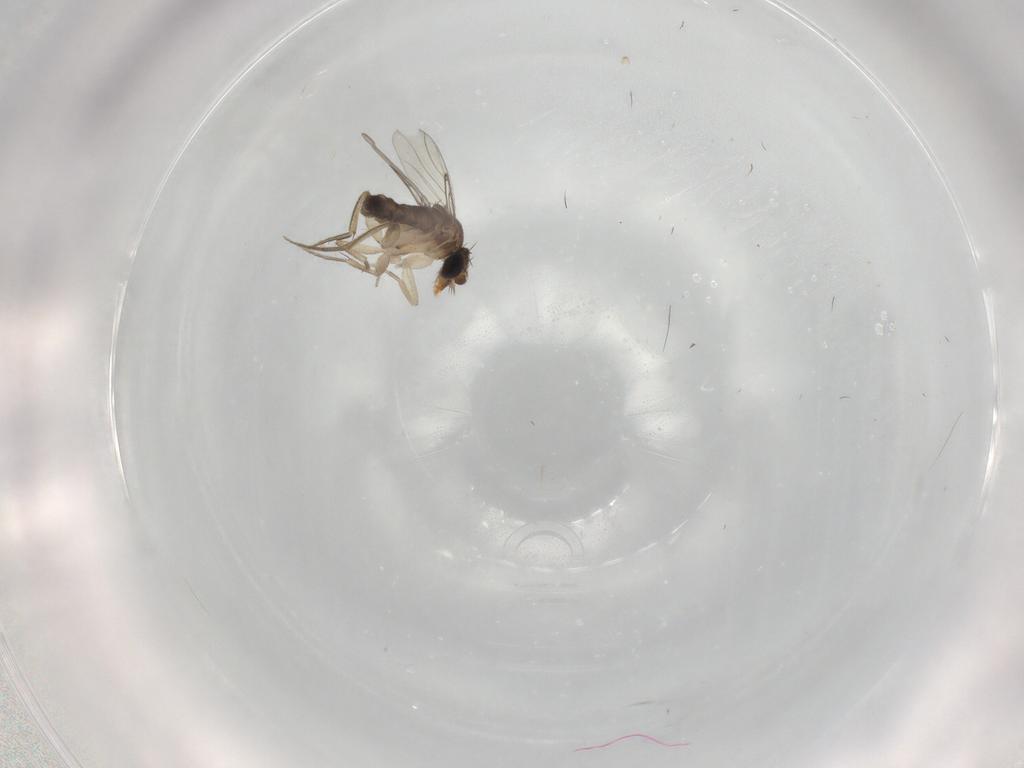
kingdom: Animalia
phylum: Arthropoda
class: Insecta
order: Diptera
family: Phoridae
